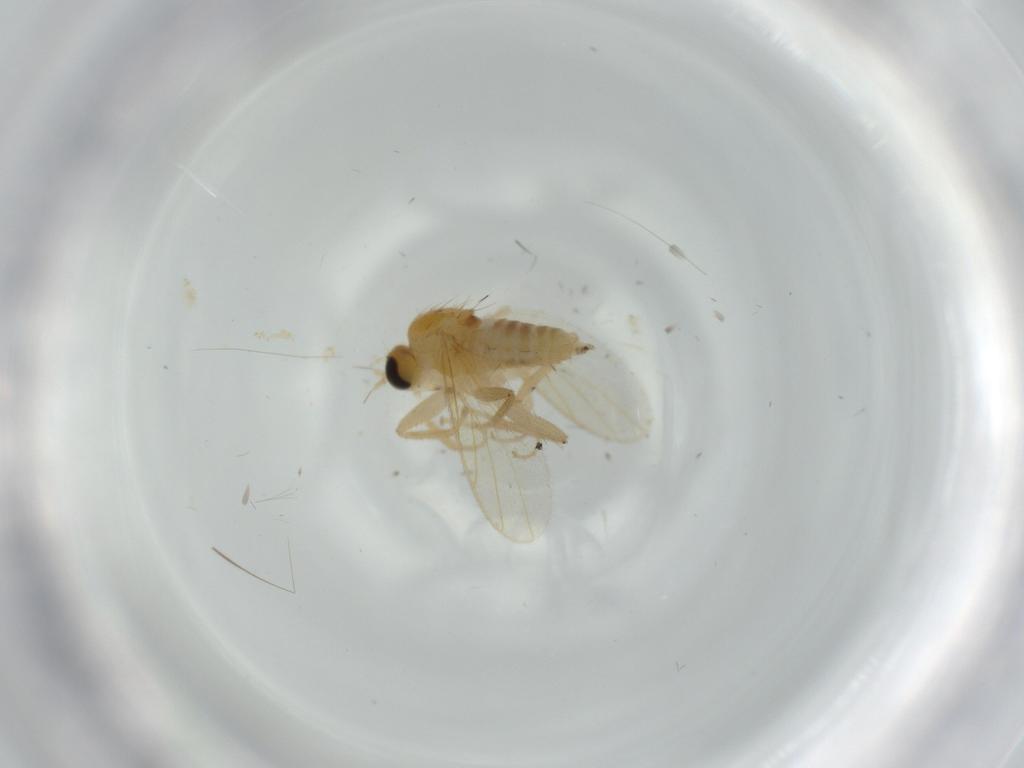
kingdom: Animalia
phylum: Arthropoda
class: Insecta
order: Diptera
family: Hybotidae
